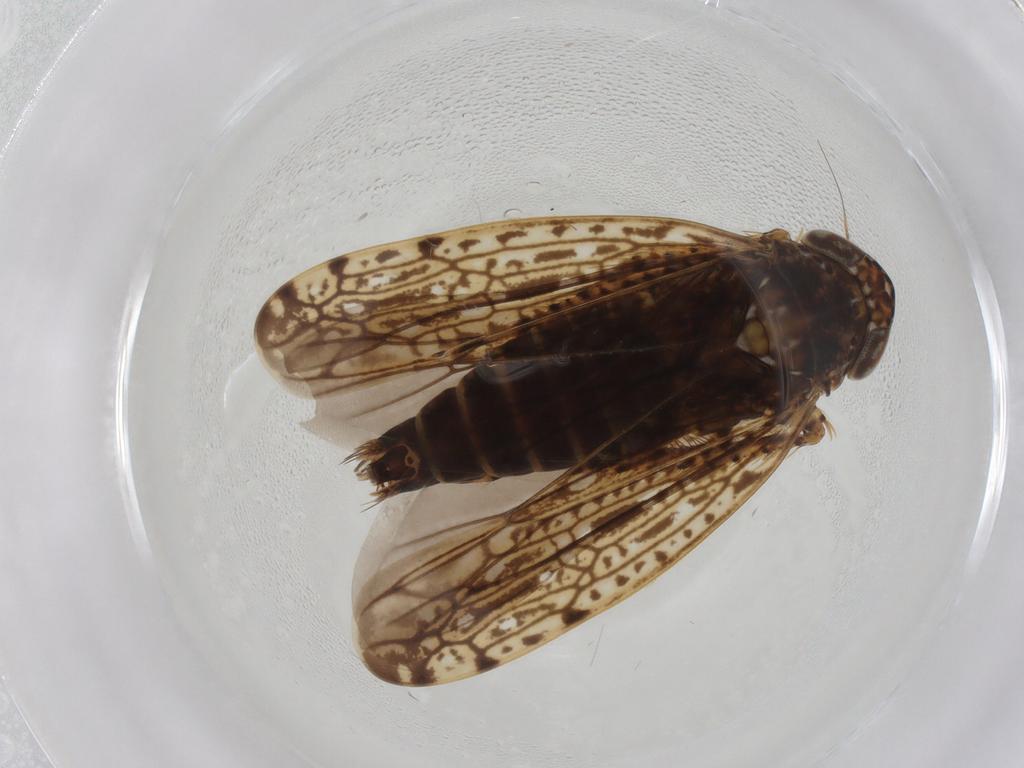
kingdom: Animalia
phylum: Arthropoda
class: Insecta
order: Hemiptera
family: Cicadellidae
